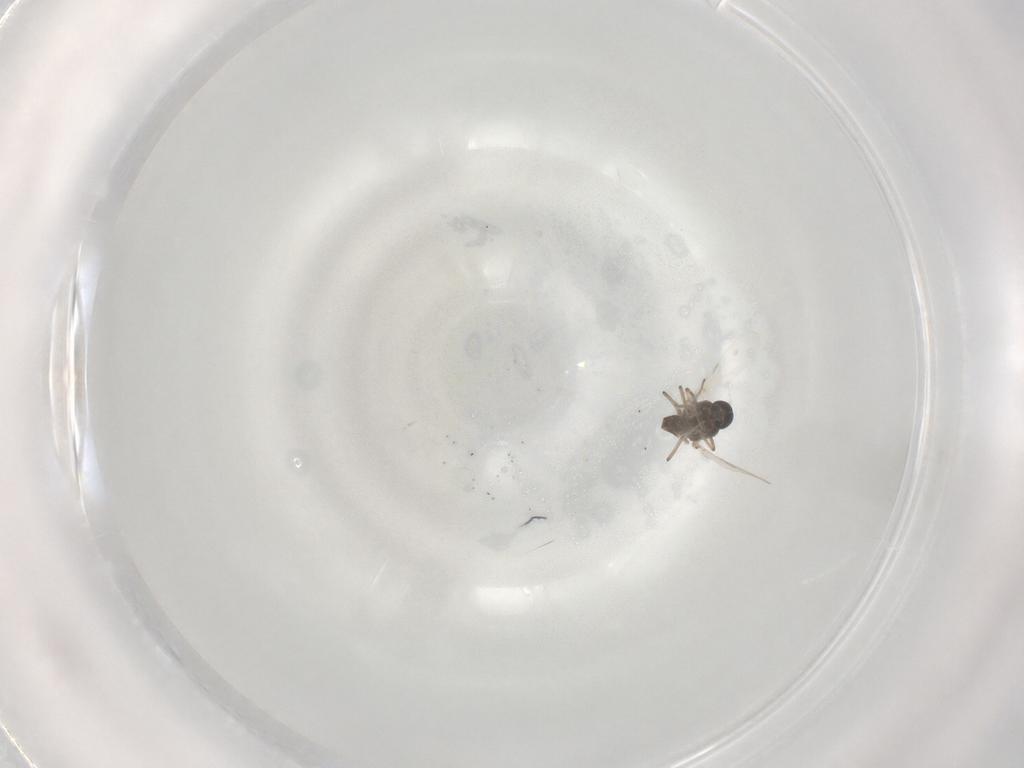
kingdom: Animalia
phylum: Arthropoda
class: Insecta
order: Diptera
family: Ceratopogonidae
